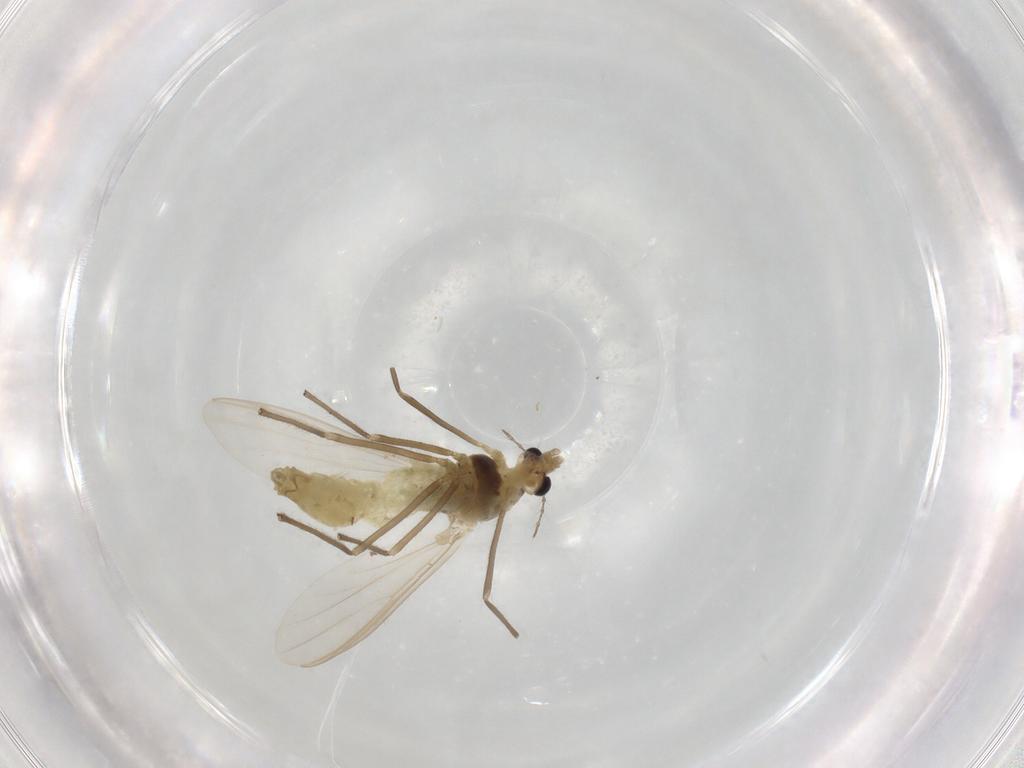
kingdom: Animalia
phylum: Arthropoda
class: Insecta
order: Diptera
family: Chironomidae
